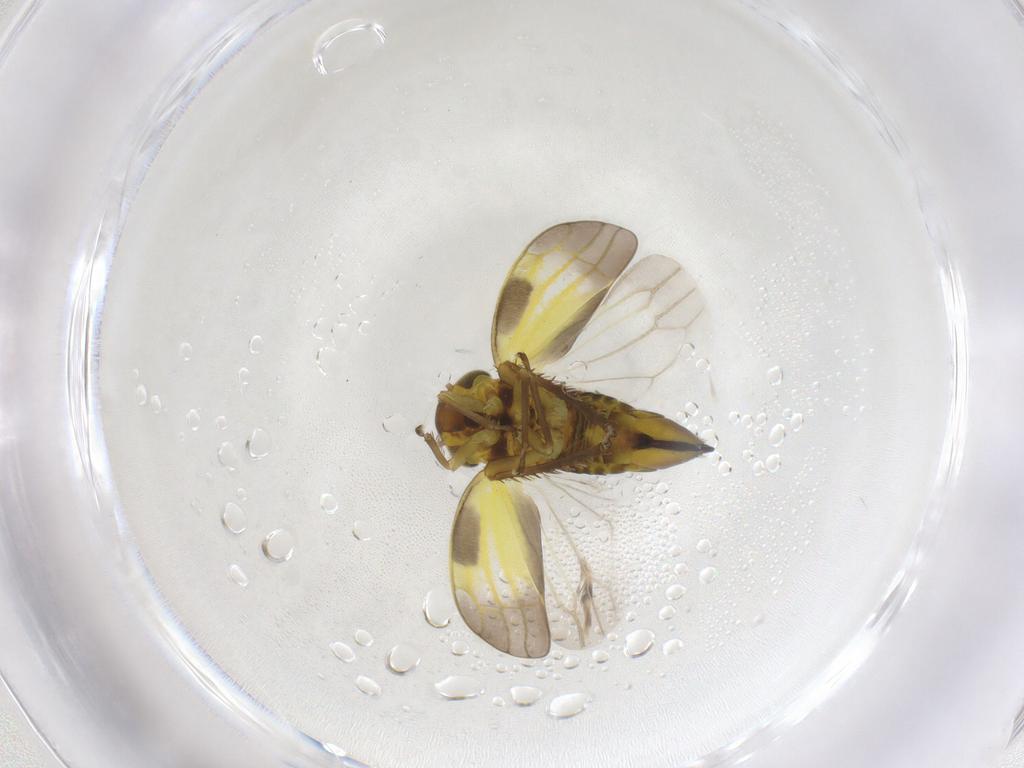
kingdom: Animalia
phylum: Arthropoda
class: Insecta
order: Hemiptera
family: Cicadellidae
